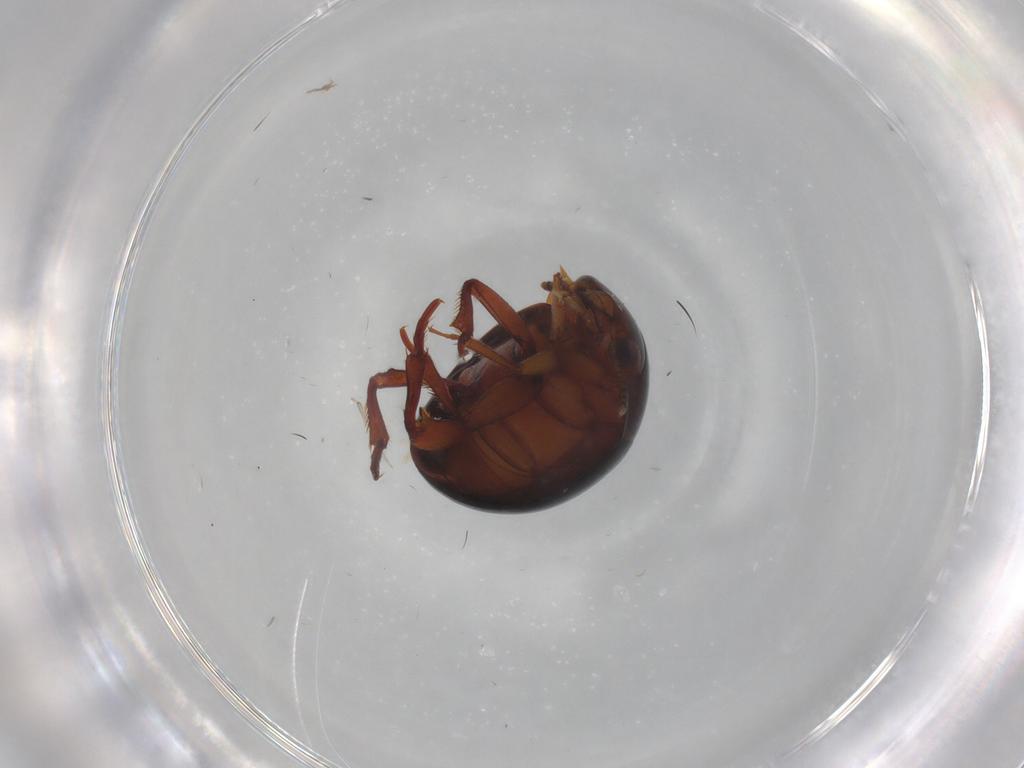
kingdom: Animalia
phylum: Arthropoda
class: Insecta
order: Coleoptera
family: Leiodidae
